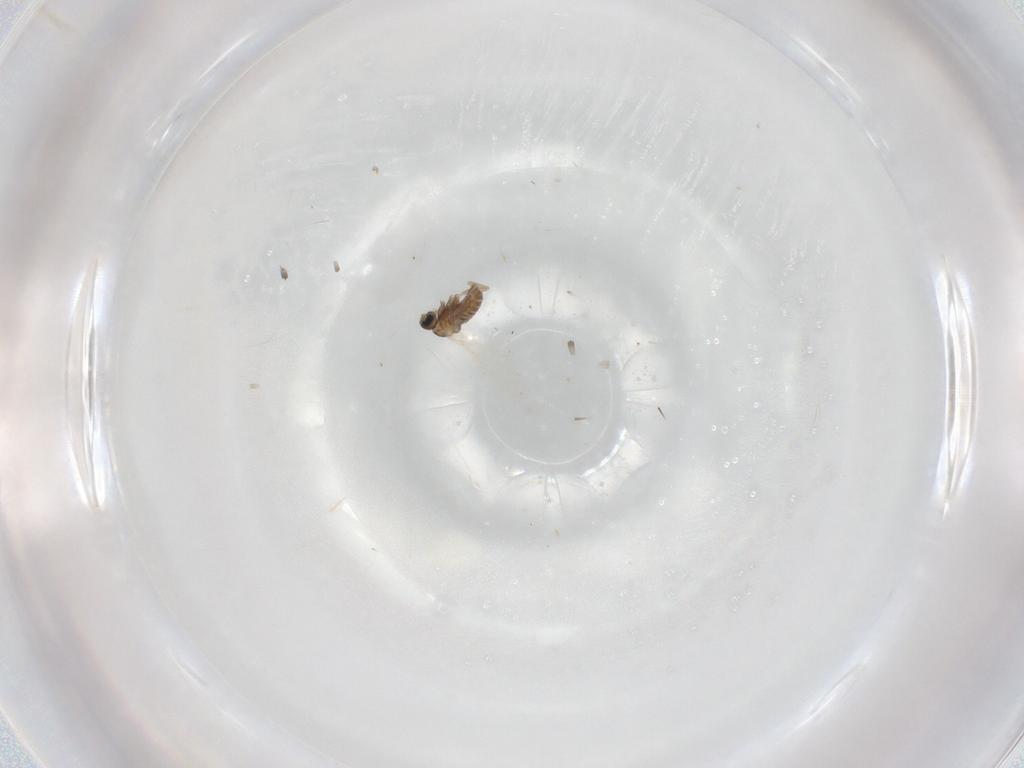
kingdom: Animalia
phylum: Arthropoda
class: Insecta
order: Diptera
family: Cecidomyiidae
